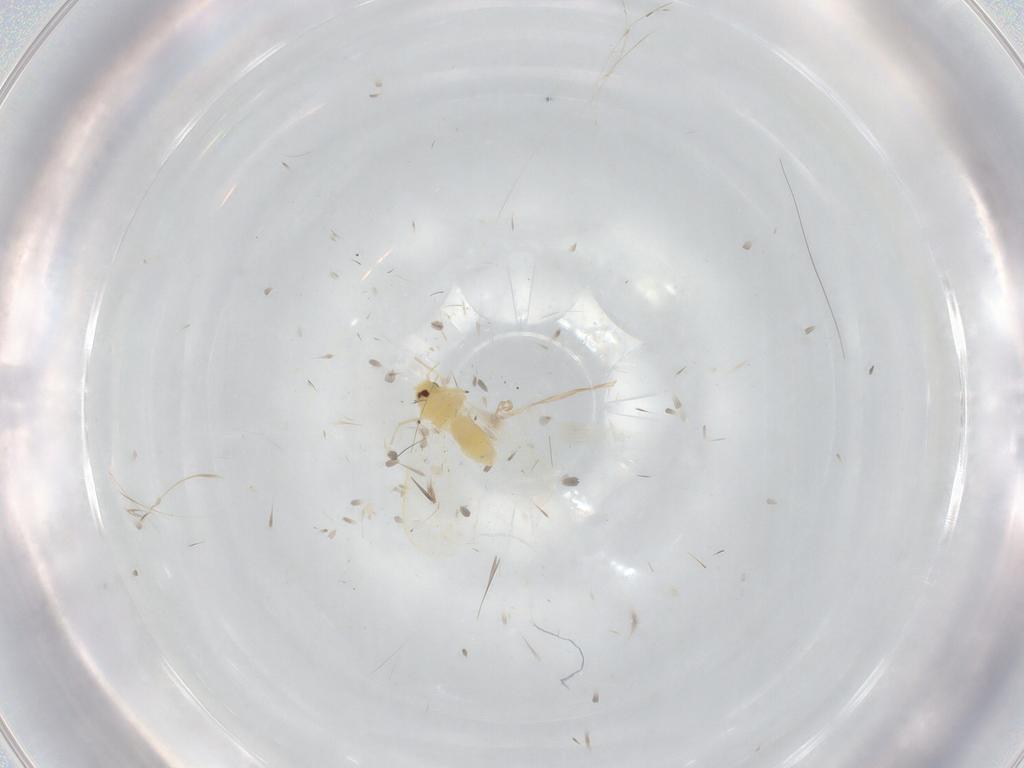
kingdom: Animalia
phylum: Arthropoda
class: Insecta
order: Hemiptera
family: Aleyrodidae
